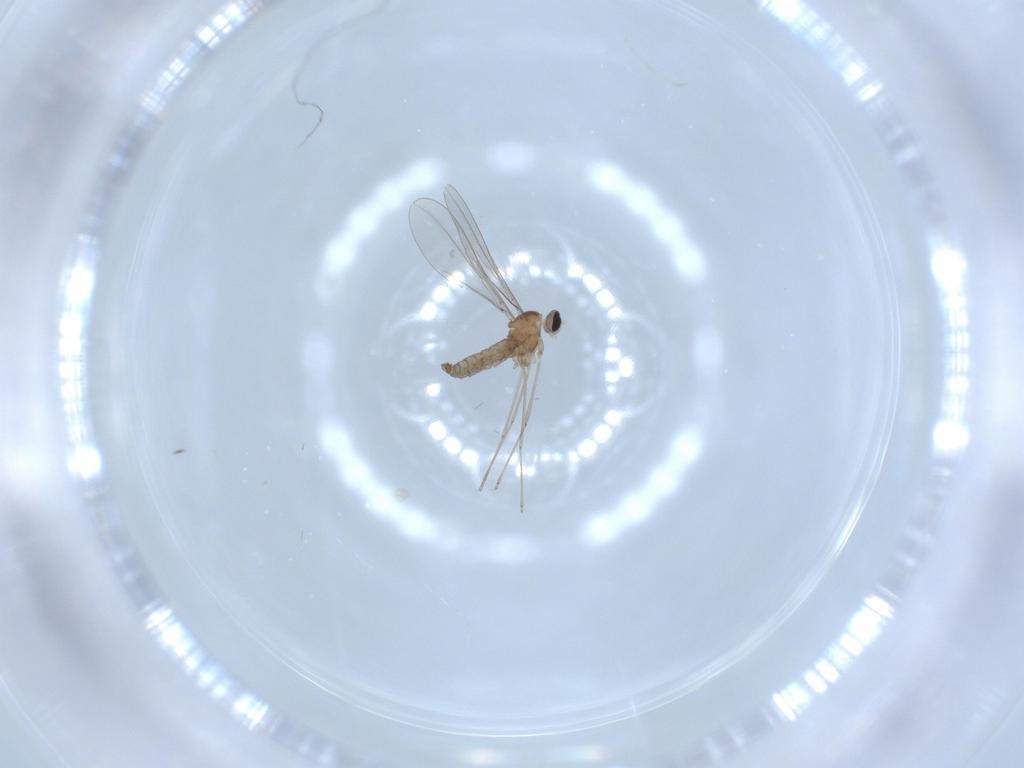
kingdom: Animalia
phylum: Arthropoda
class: Insecta
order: Diptera
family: Cecidomyiidae
